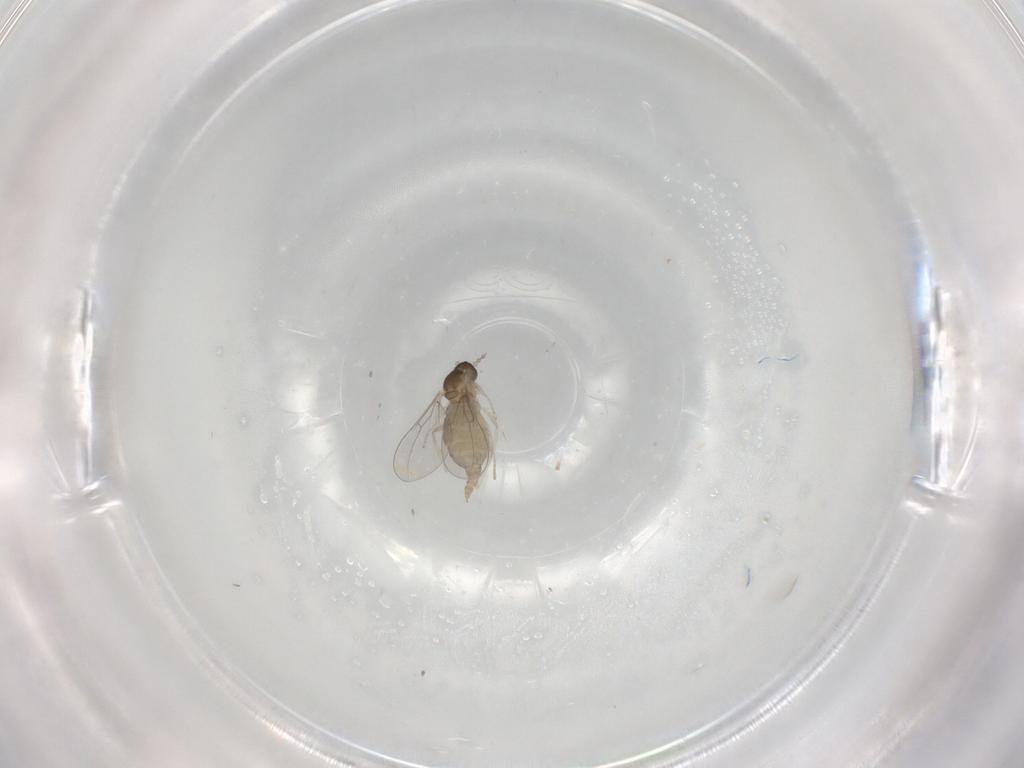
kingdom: Animalia
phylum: Arthropoda
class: Insecta
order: Diptera
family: Cecidomyiidae
